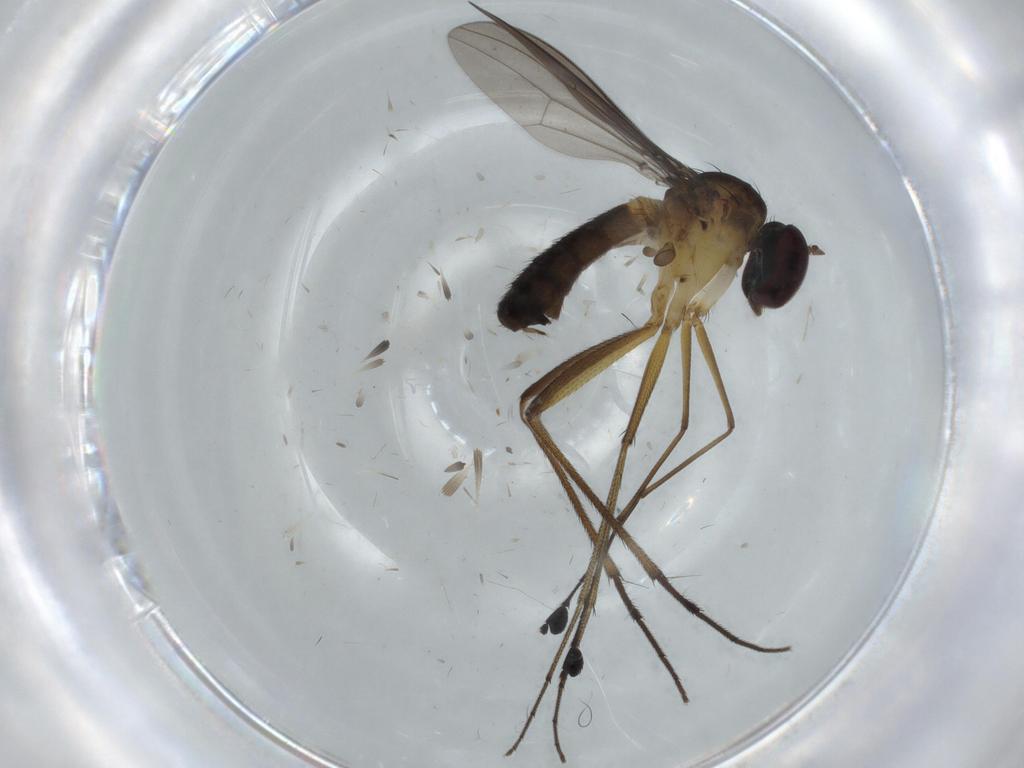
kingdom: Animalia
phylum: Arthropoda
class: Insecta
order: Diptera
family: Dolichopodidae
